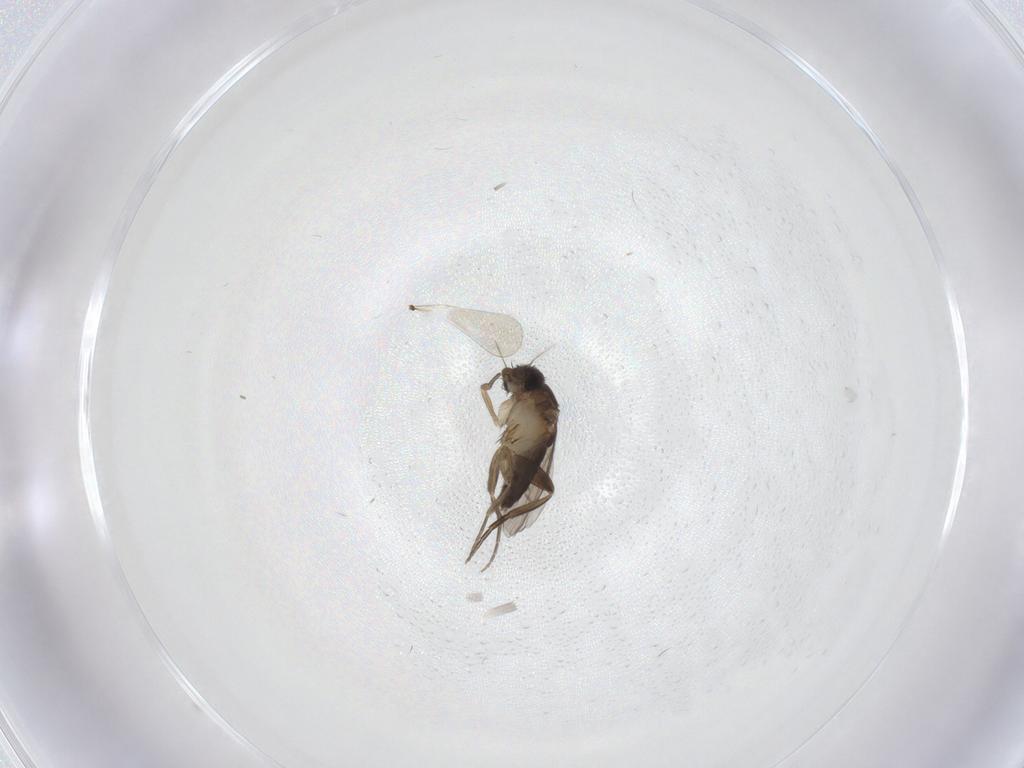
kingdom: Animalia
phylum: Arthropoda
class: Insecta
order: Diptera
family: Phoridae
